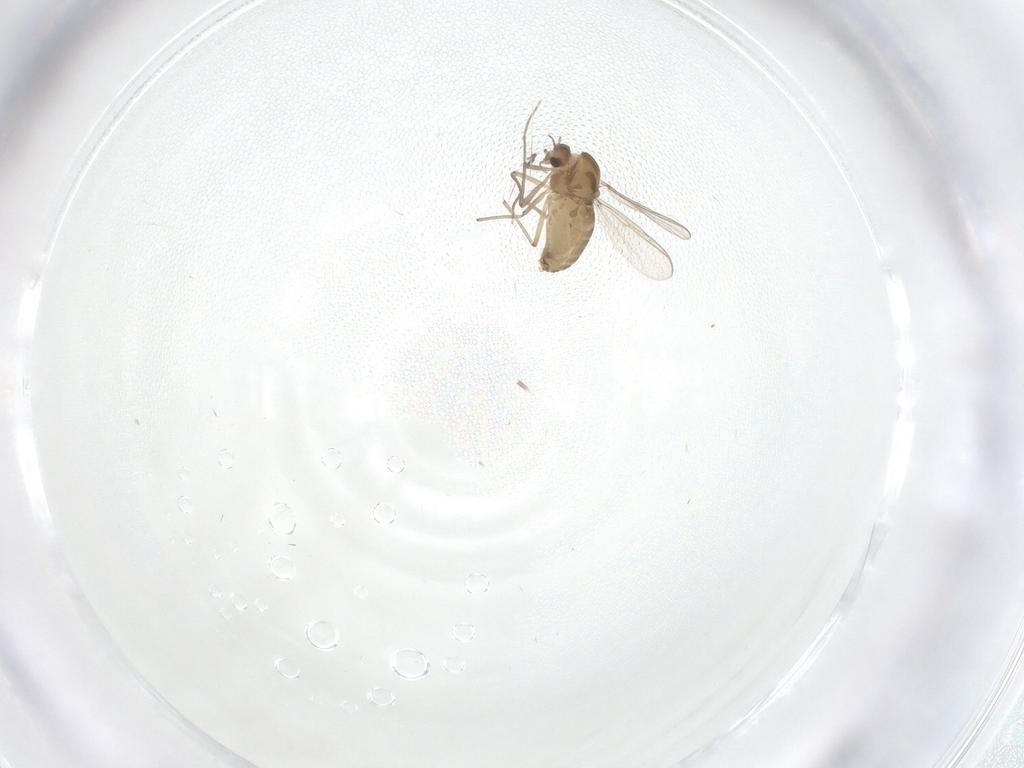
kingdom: Animalia
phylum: Arthropoda
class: Insecta
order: Diptera
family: Chironomidae
